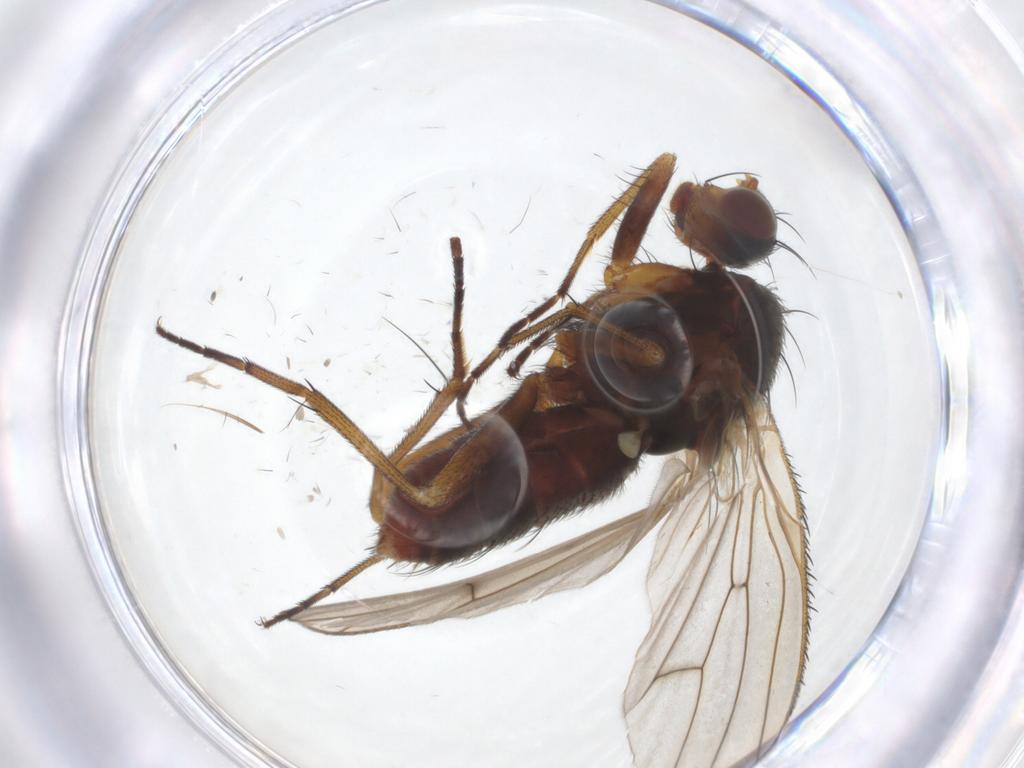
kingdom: Animalia
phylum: Arthropoda
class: Insecta
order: Diptera
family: Heleomyzidae
